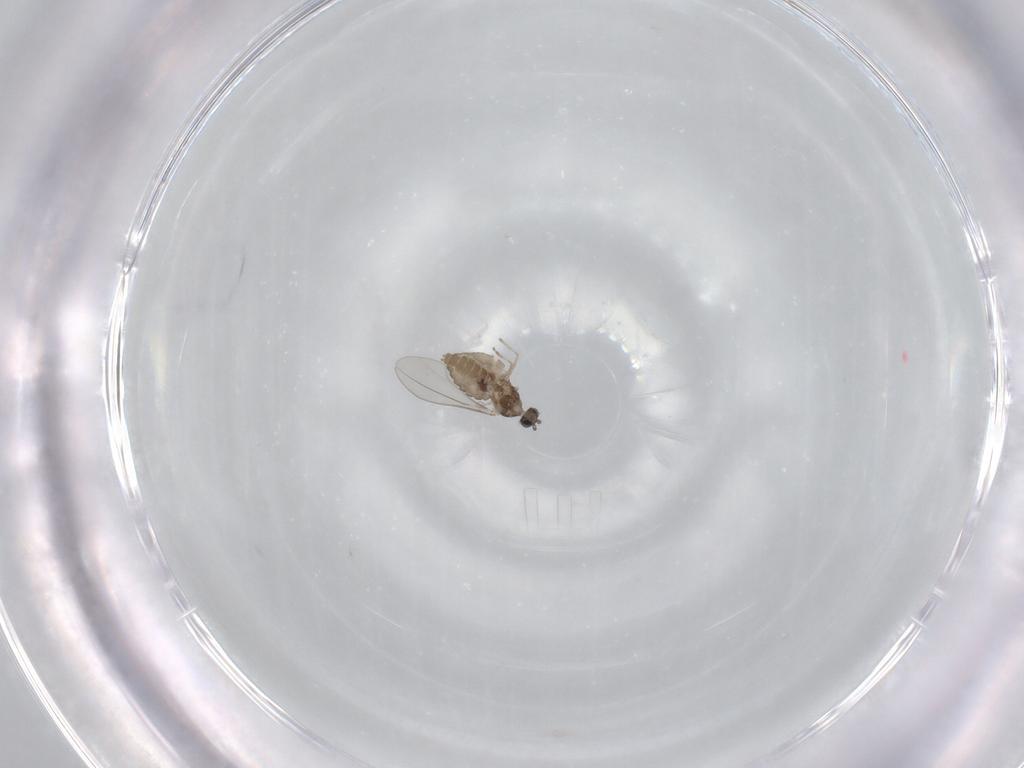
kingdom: Animalia
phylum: Arthropoda
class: Insecta
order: Diptera
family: Cecidomyiidae
